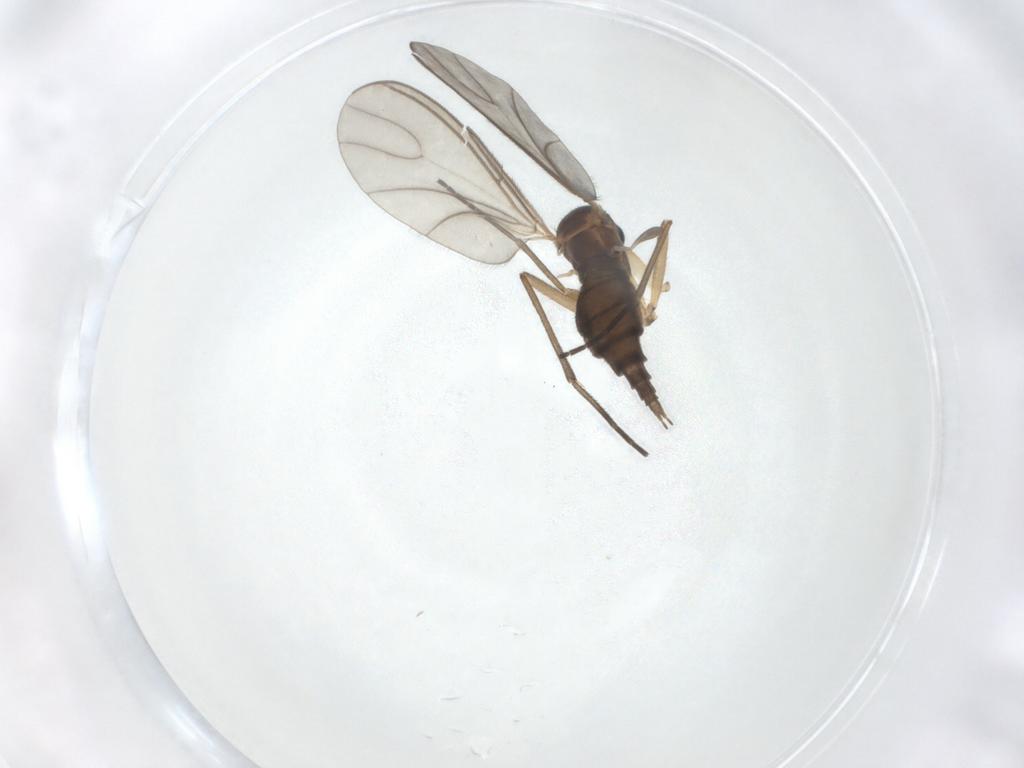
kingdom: Animalia
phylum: Arthropoda
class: Insecta
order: Diptera
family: Sciaridae
